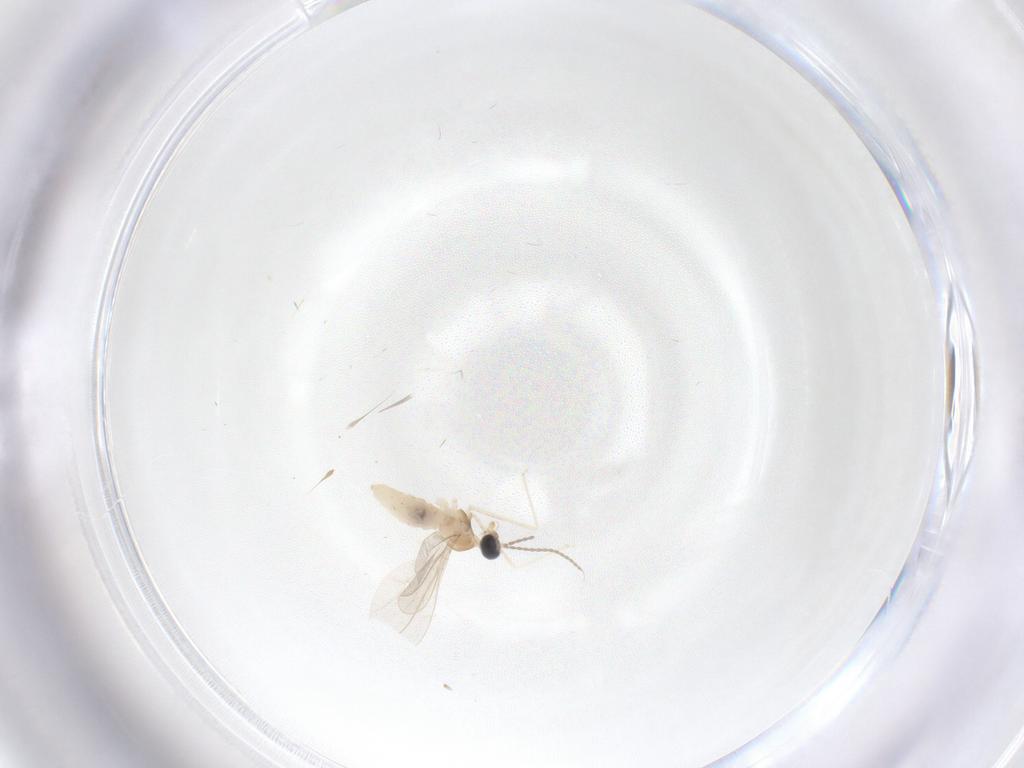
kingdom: Animalia
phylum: Arthropoda
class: Insecta
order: Diptera
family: Cecidomyiidae
